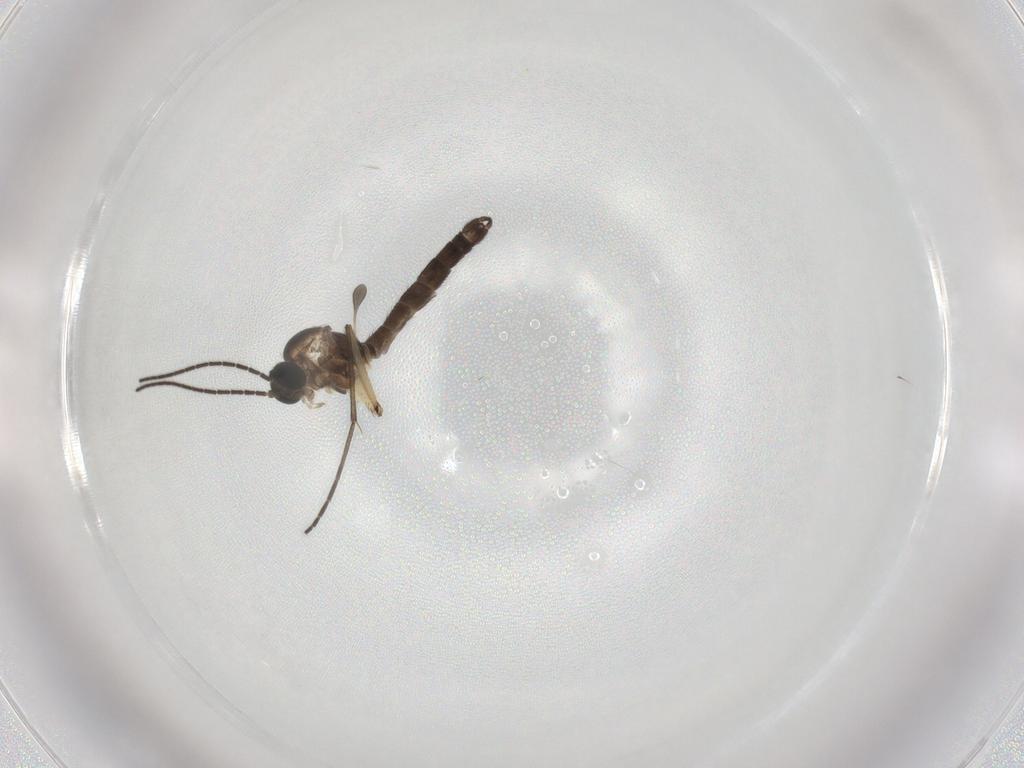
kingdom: Animalia
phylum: Arthropoda
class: Insecta
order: Diptera
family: Sciaridae
